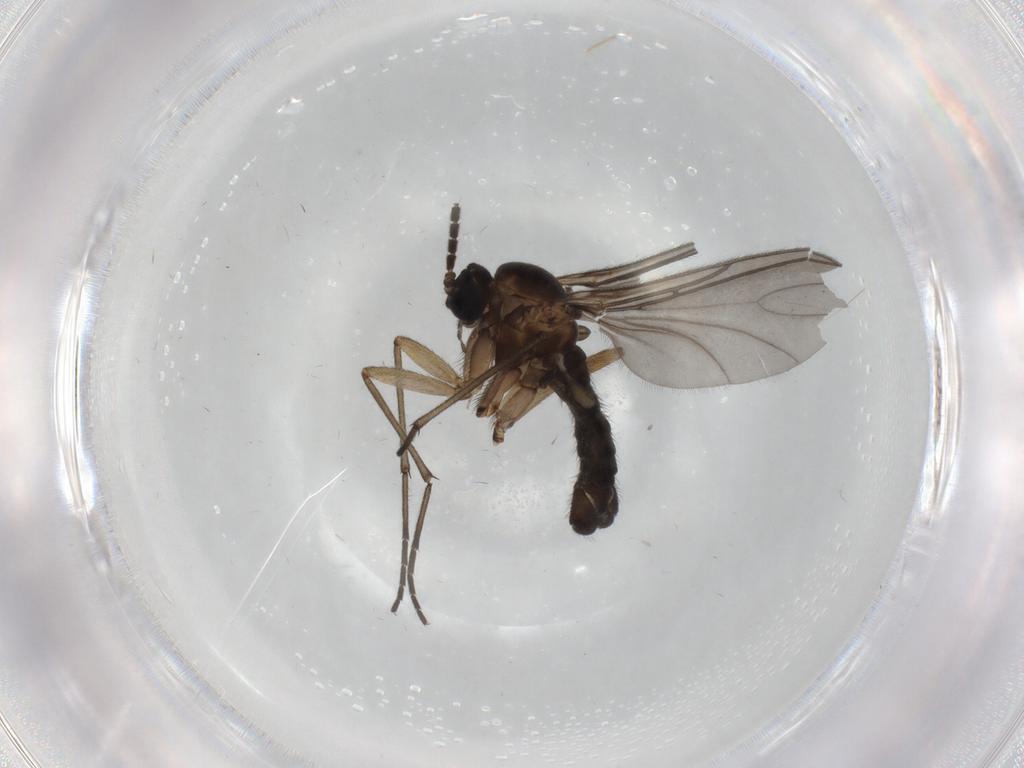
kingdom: Animalia
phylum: Arthropoda
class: Insecta
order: Diptera
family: Sciaridae
